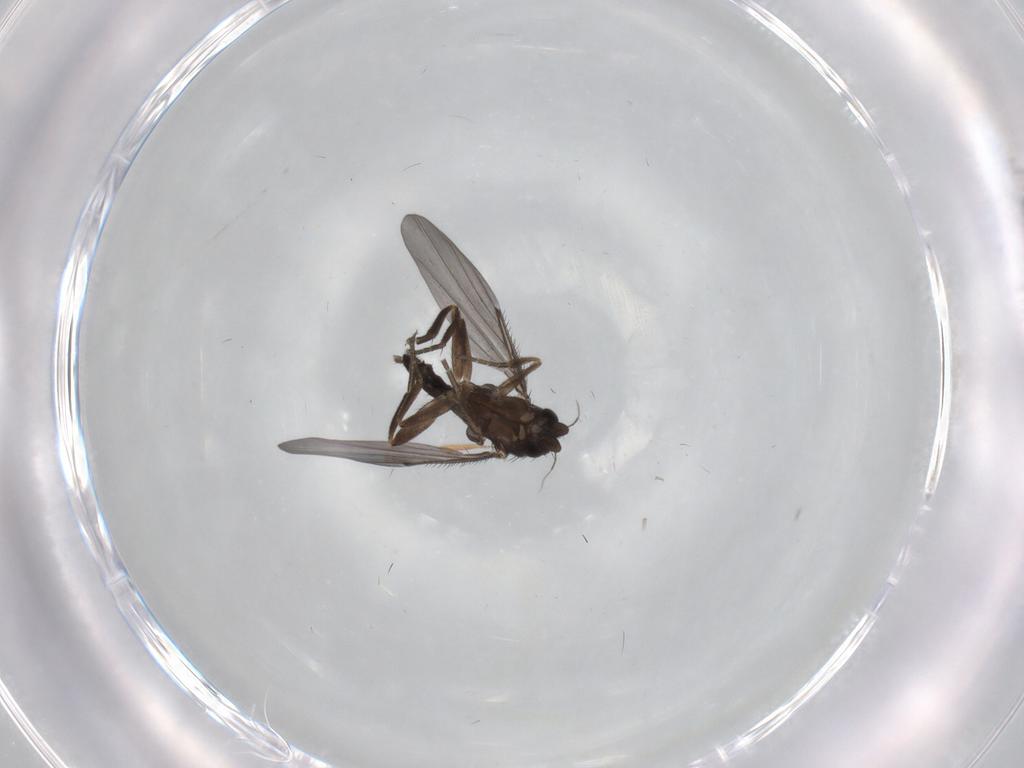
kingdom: Animalia
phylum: Arthropoda
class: Insecta
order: Diptera
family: Phoridae
